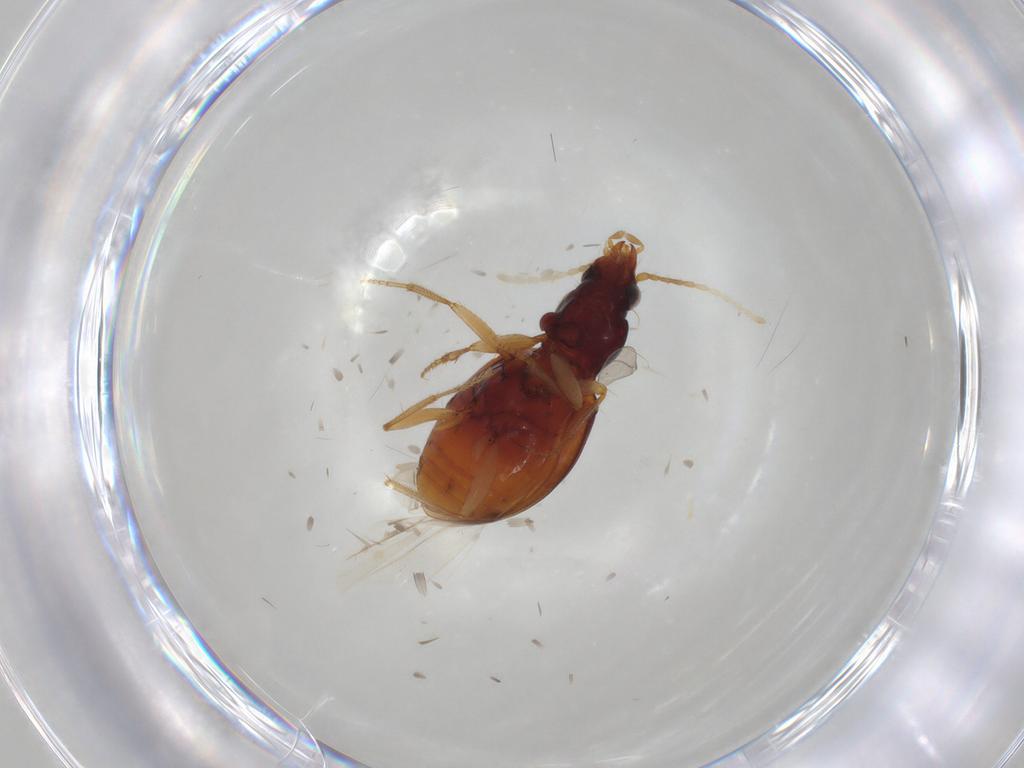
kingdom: Animalia
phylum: Arthropoda
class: Insecta
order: Coleoptera
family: Carabidae
